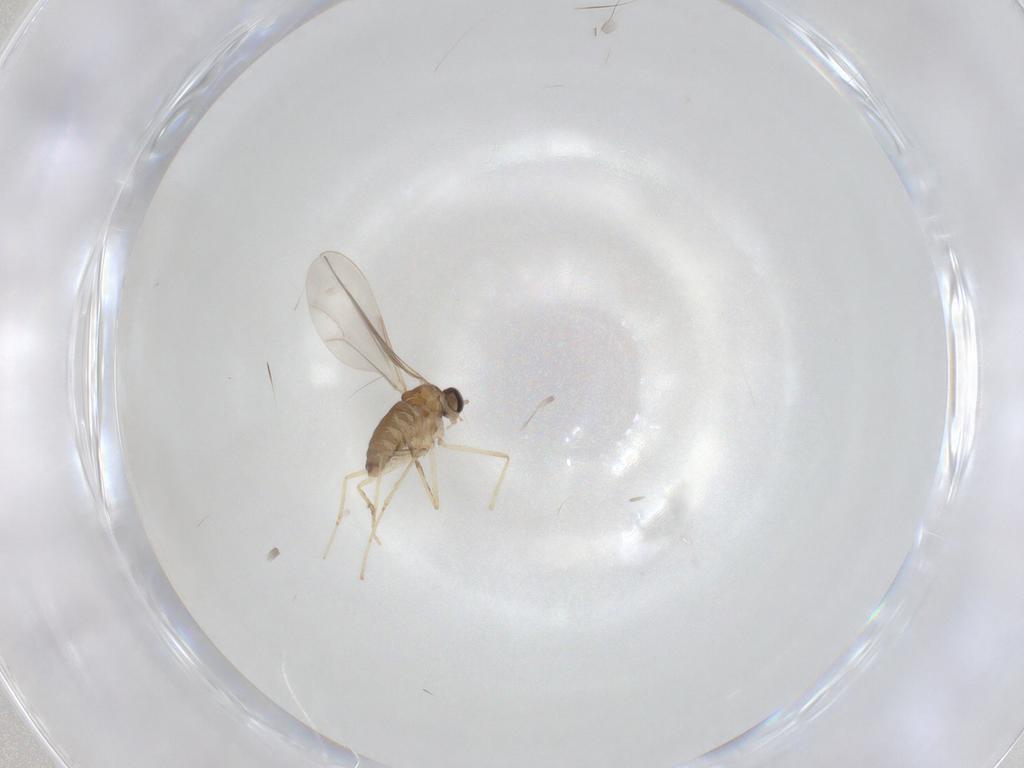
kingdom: Animalia
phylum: Arthropoda
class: Insecta
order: Diptera
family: Cecidomyiidae
